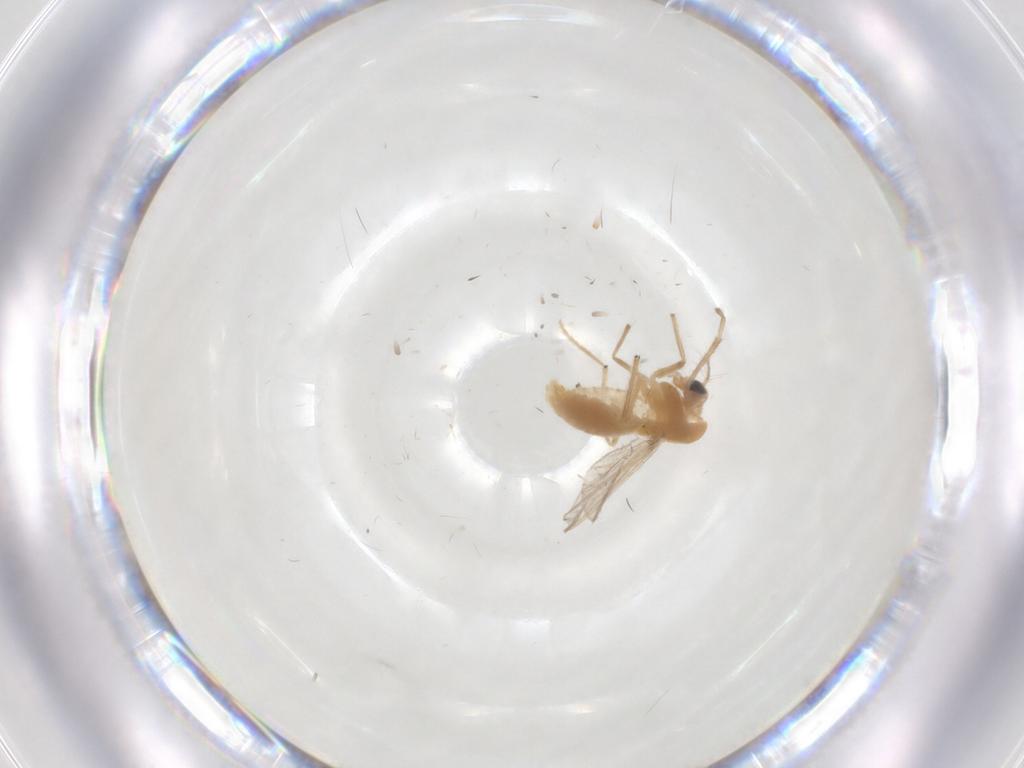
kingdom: Animalia
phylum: Arthropoda
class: Insecta
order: Diptera
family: Chironomidae
